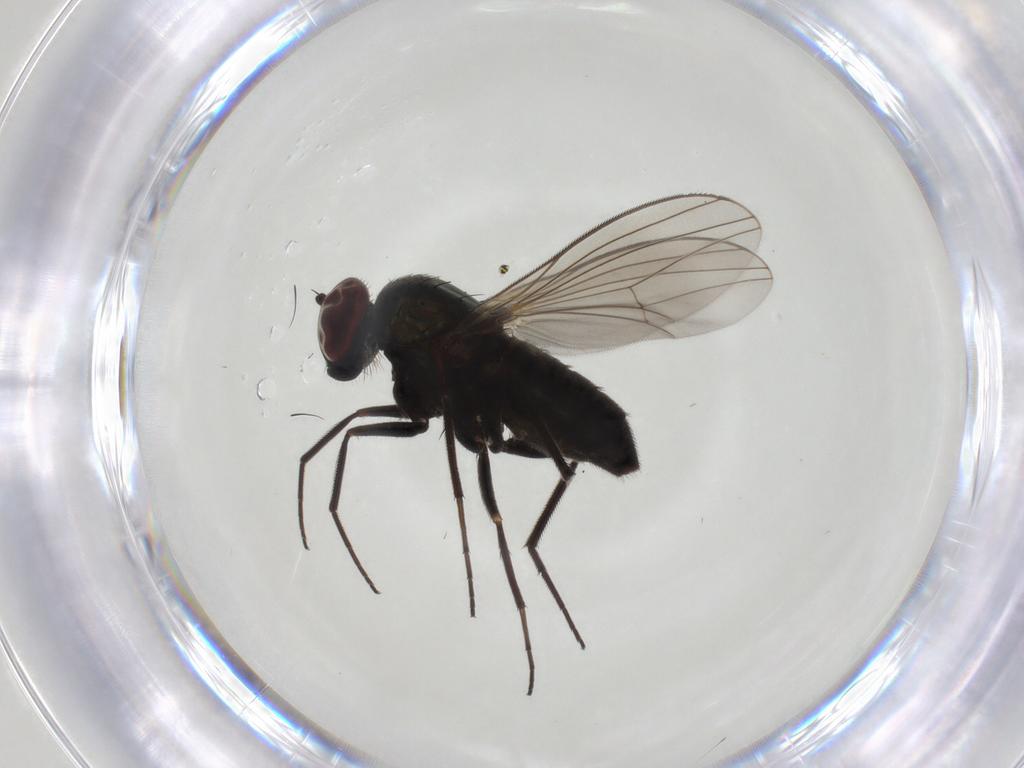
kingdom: Animalia
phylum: Arthropoda
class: Insecta
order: Diptera
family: Dolichopodidae
